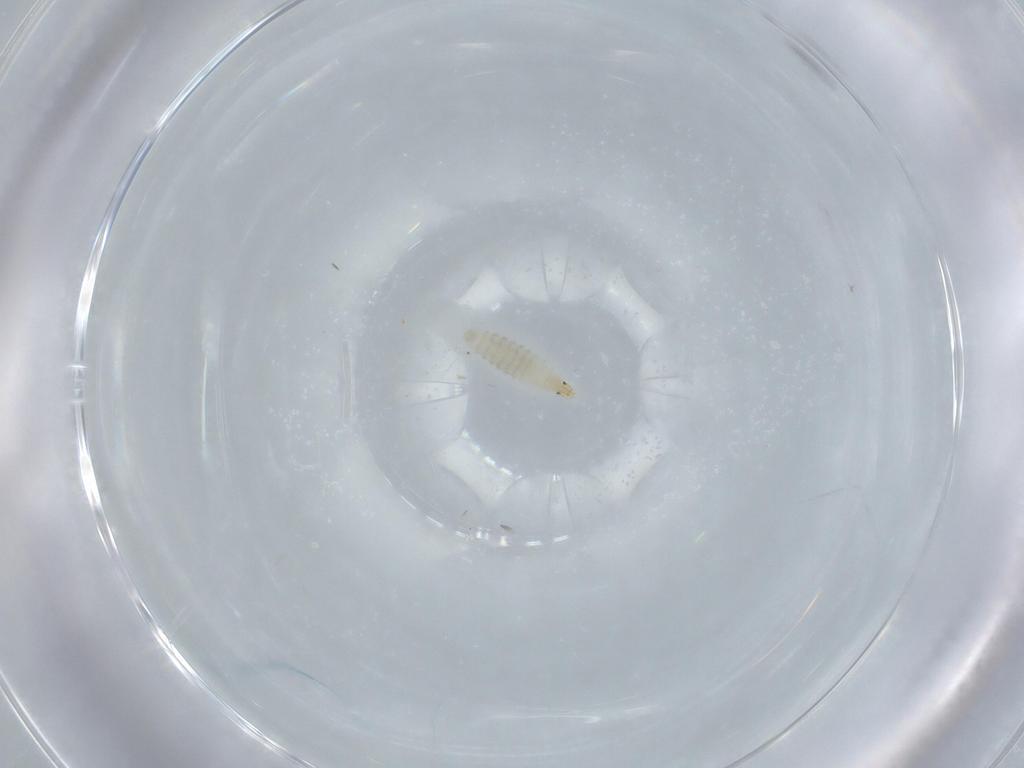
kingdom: Animalia
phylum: Arthropoda
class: Insecta
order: Diptera
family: Sphaeroceridae
